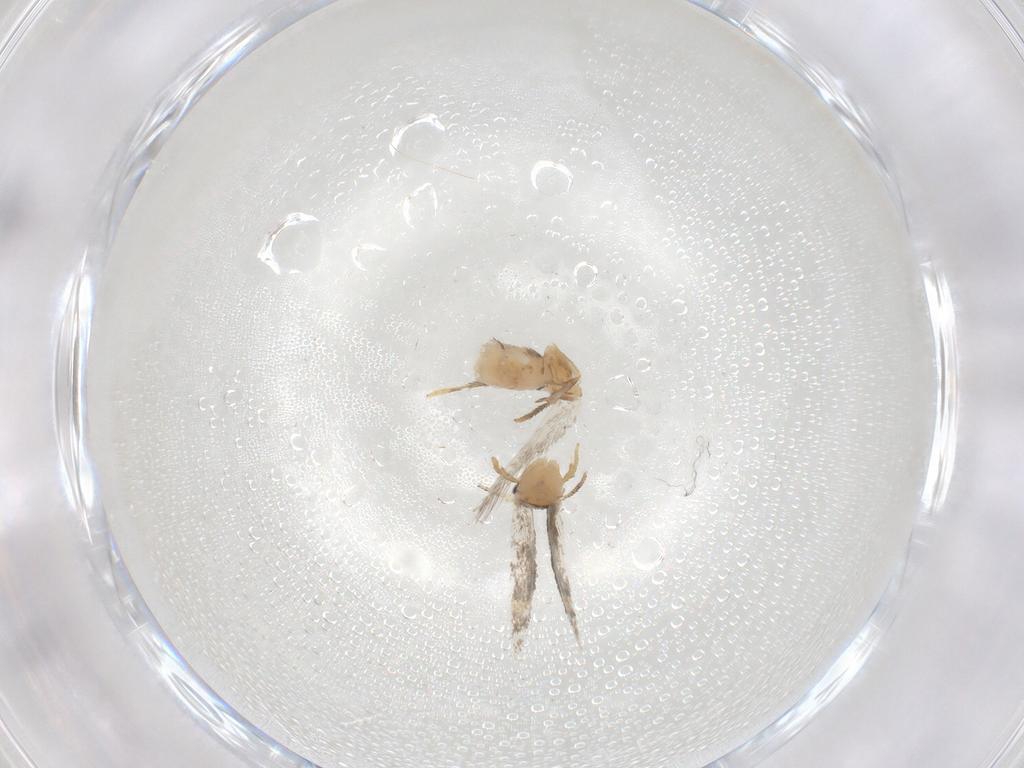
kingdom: Animalia
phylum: Arthropoda
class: Insecta
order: Lepidoptera
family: Nepticulidae
